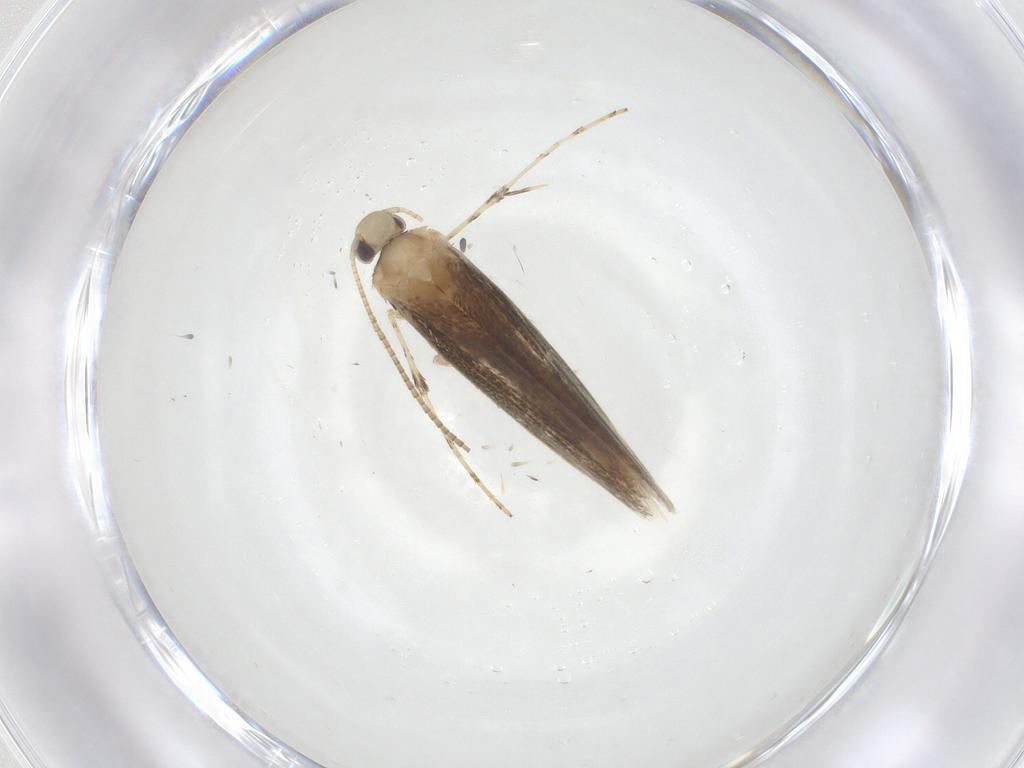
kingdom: Animalia
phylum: Arthropoda
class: Insecta
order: Lepidoptera
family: Gracillariidae
